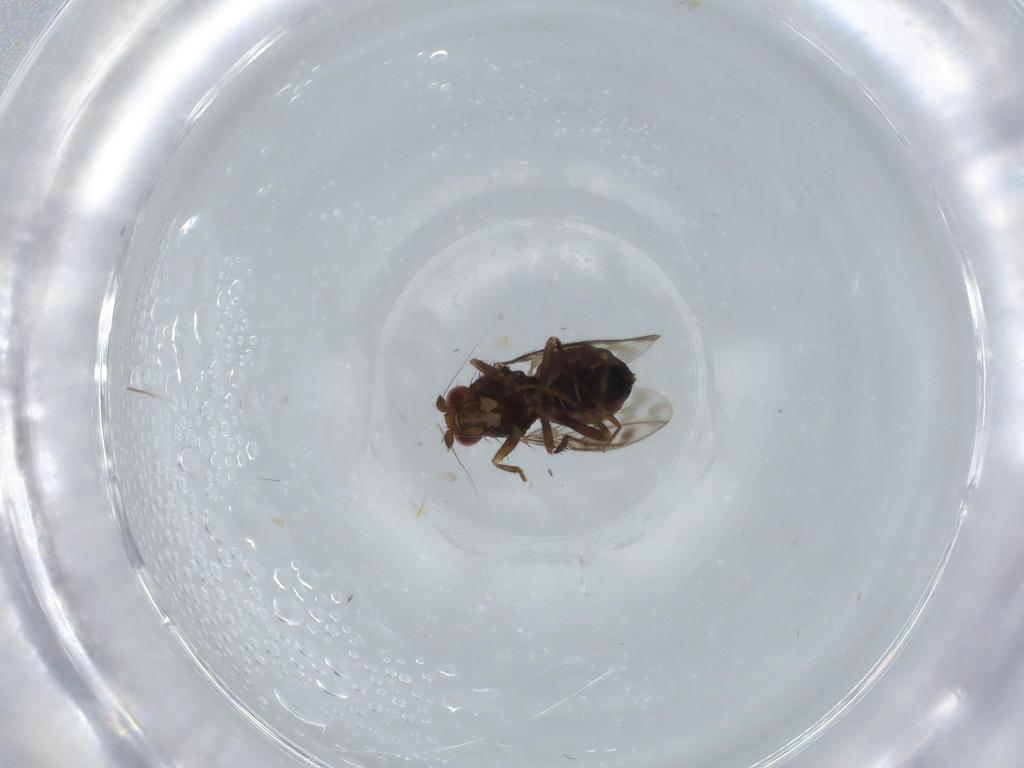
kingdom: Animalia
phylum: Arthropoda
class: Insecta
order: Diptera
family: Sphaeroceridae
